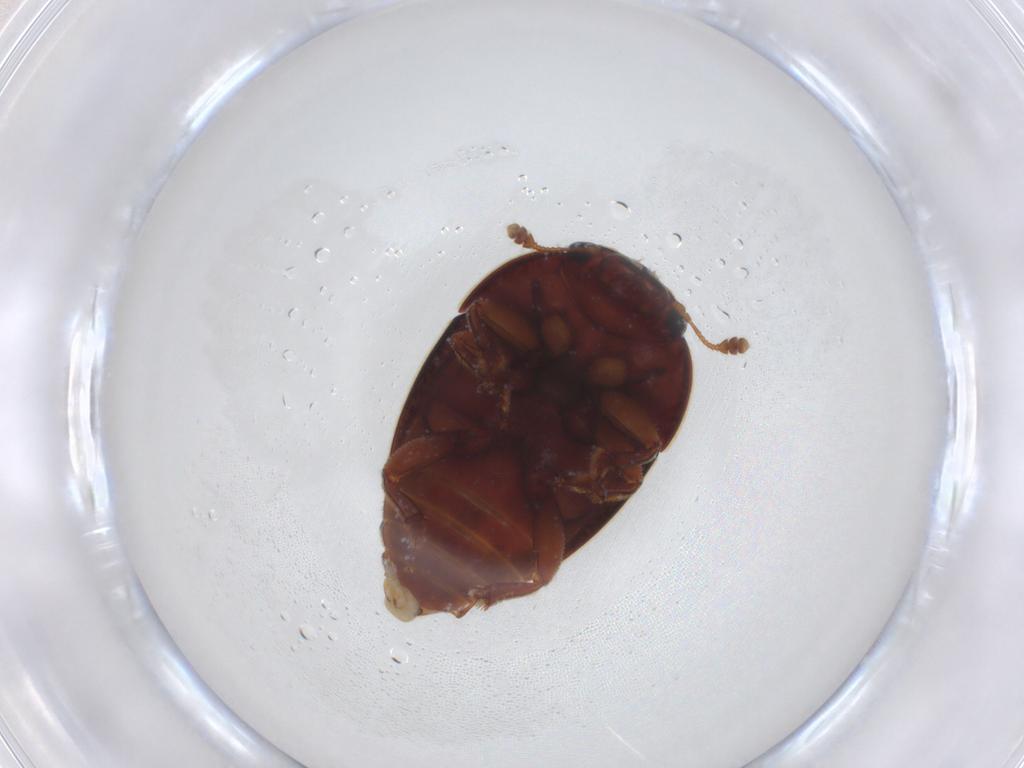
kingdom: Animalia
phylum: Arthropoda
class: Insecta
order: Coleoptera
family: Nitidulidae
